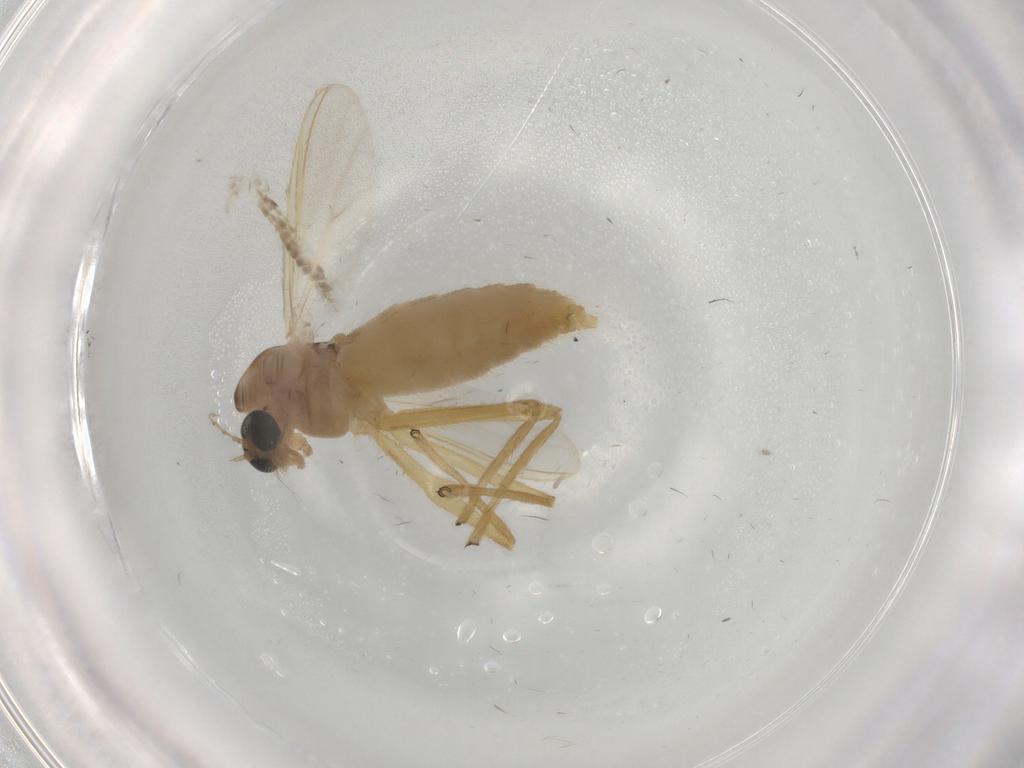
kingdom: Animalia
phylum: Arthropoda
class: Insecta
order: Diptera
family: Chironomidae
